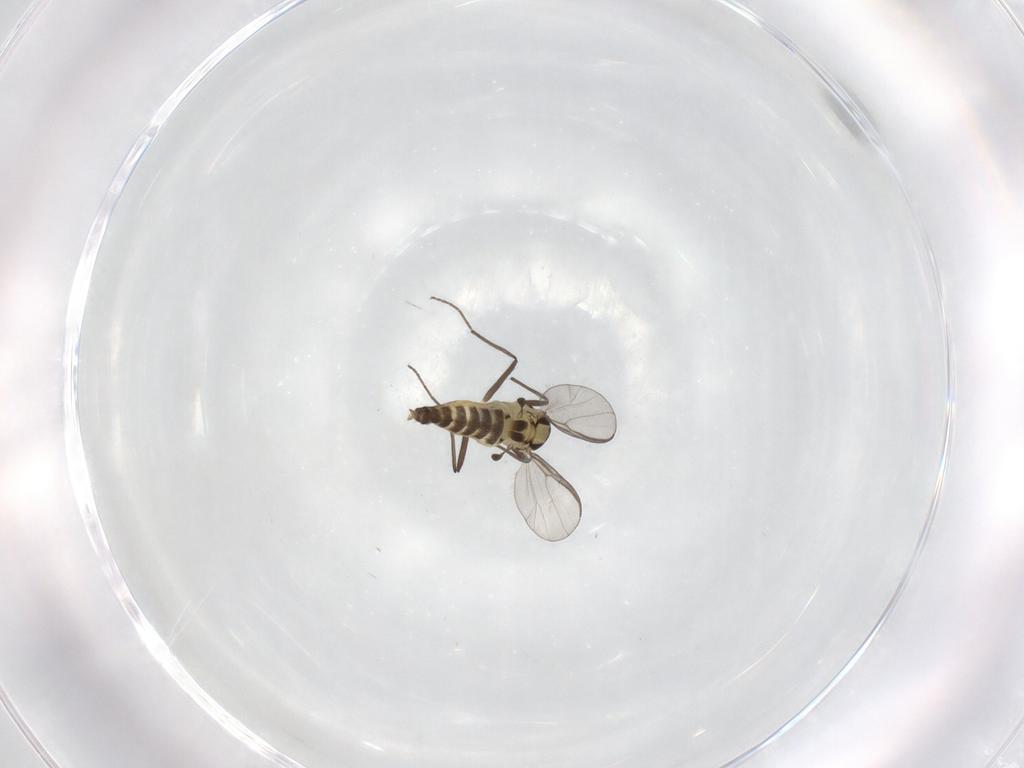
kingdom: Animalia
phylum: Arthropoda
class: Insecta
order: Diptera
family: Chironomidae
